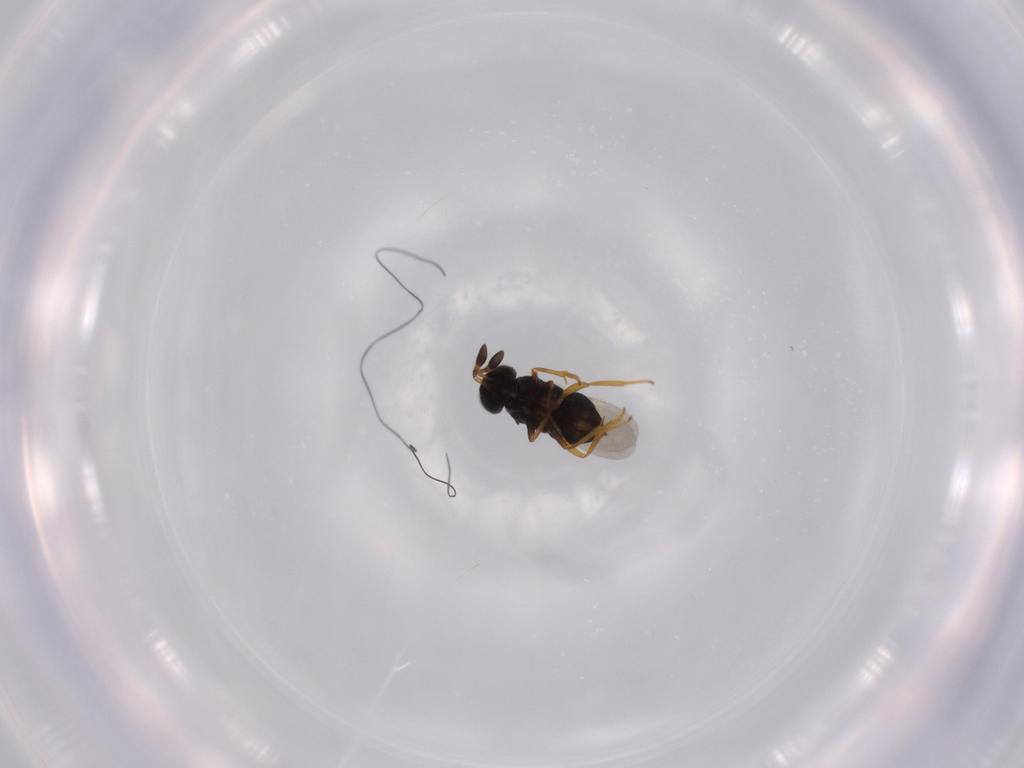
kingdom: Animalia
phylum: Arthropoda
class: Insecta
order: Hymenoptera
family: Encyrtidae
